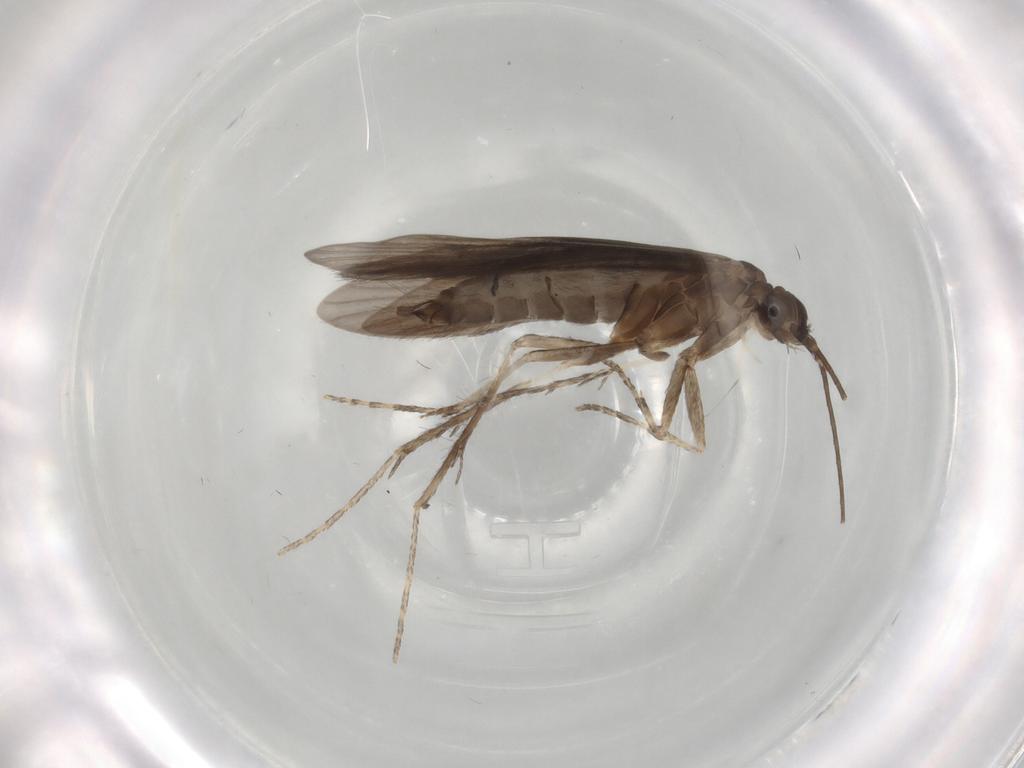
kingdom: Animalia
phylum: Arthropoda
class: Insecta
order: Trichoptera
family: Xiphocentronidae
